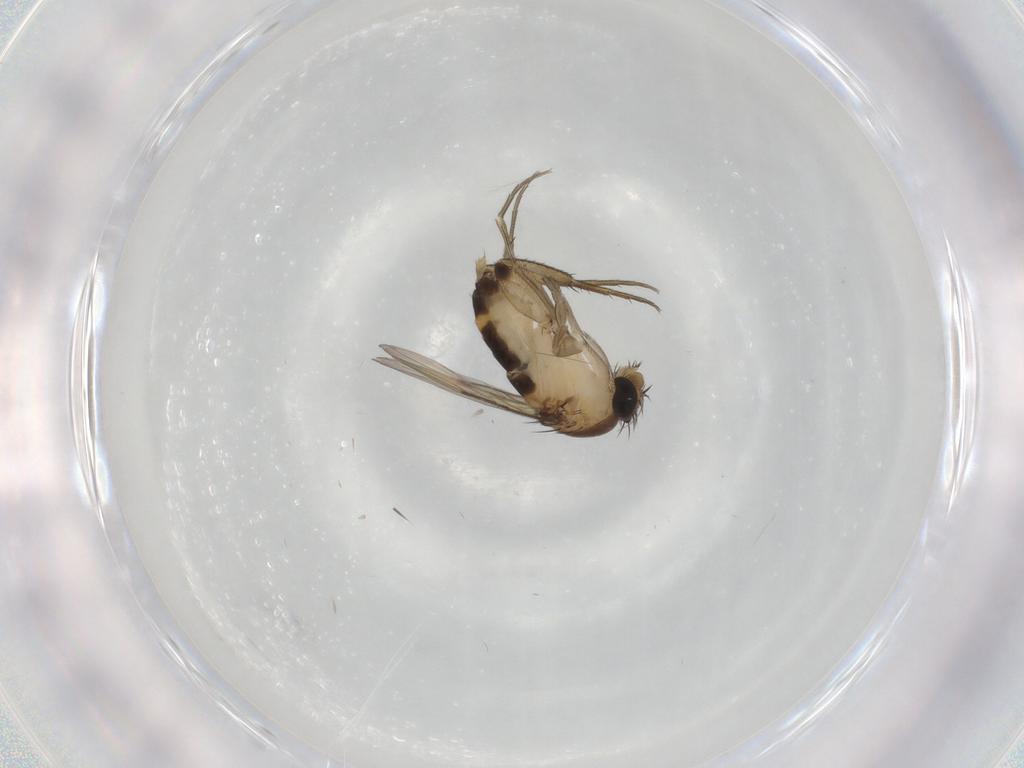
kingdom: Animalia
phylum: Arthropoda
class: Insecta
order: Diptera
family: Phoridae
